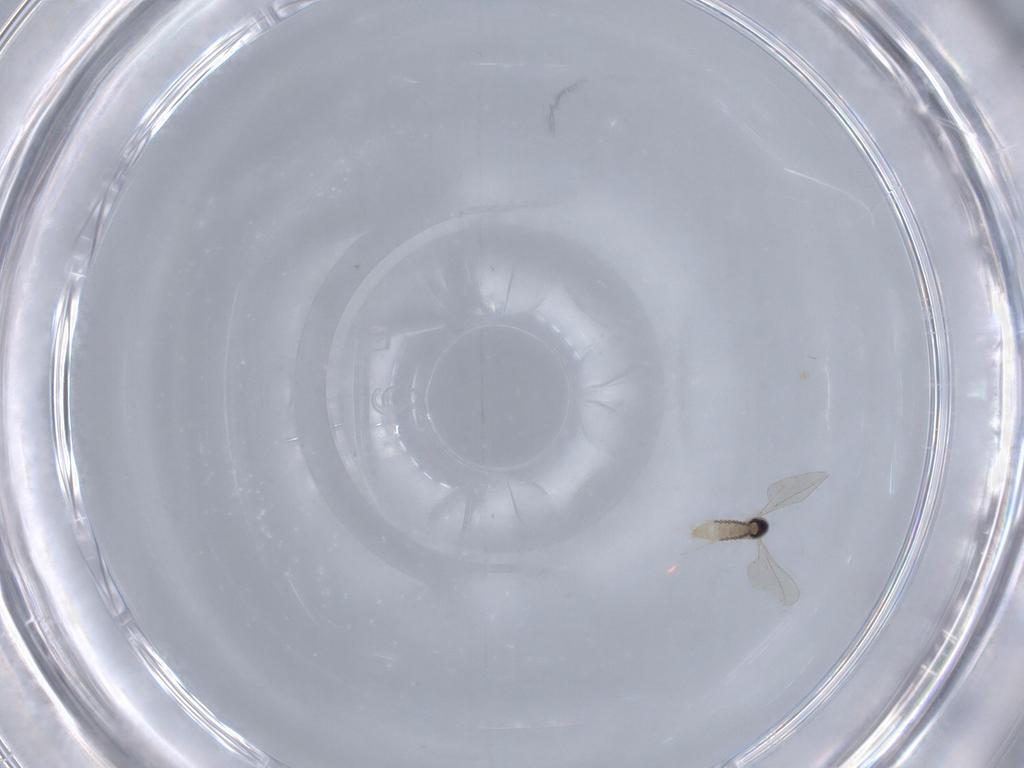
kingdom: Animalia
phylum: Arthropoda
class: Insecta
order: Diptera
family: Cecidomyiidae
